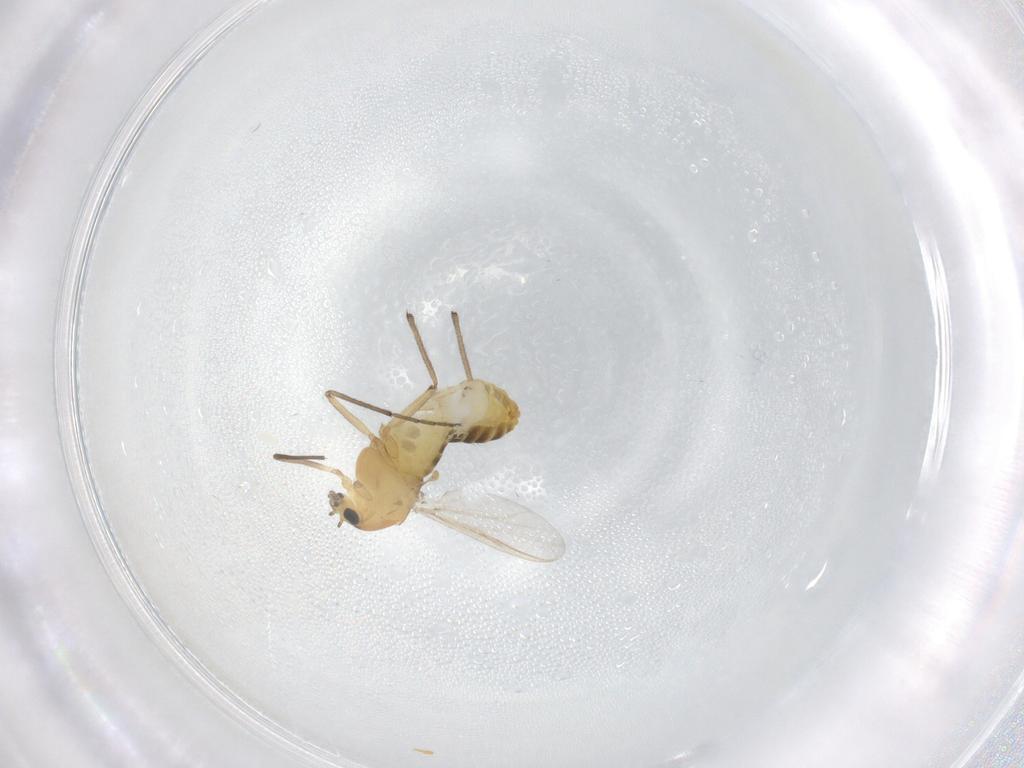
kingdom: Animalia
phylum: Arthropoda
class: Insecta
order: Diptera
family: Chironomidae
